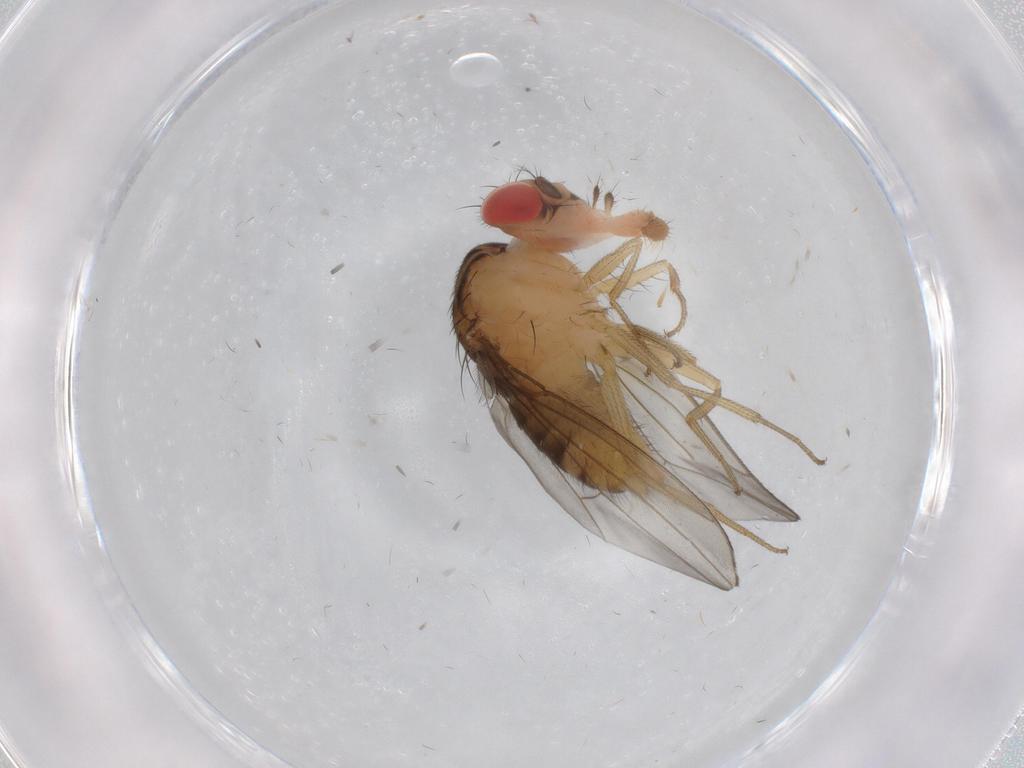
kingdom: Animalia
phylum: Arthropoda
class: Insecta
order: Diptera
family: Drosophilidae
